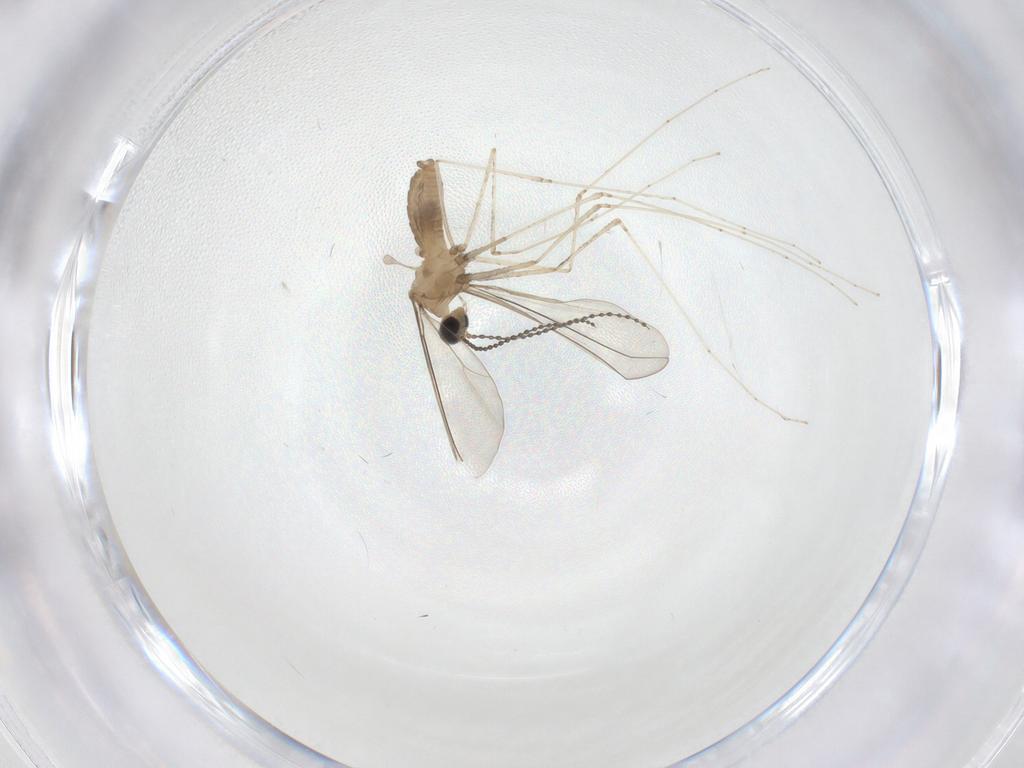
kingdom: Animalia
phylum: Arthropoda
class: Insecta
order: Diptera
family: Cecidomyiidae
